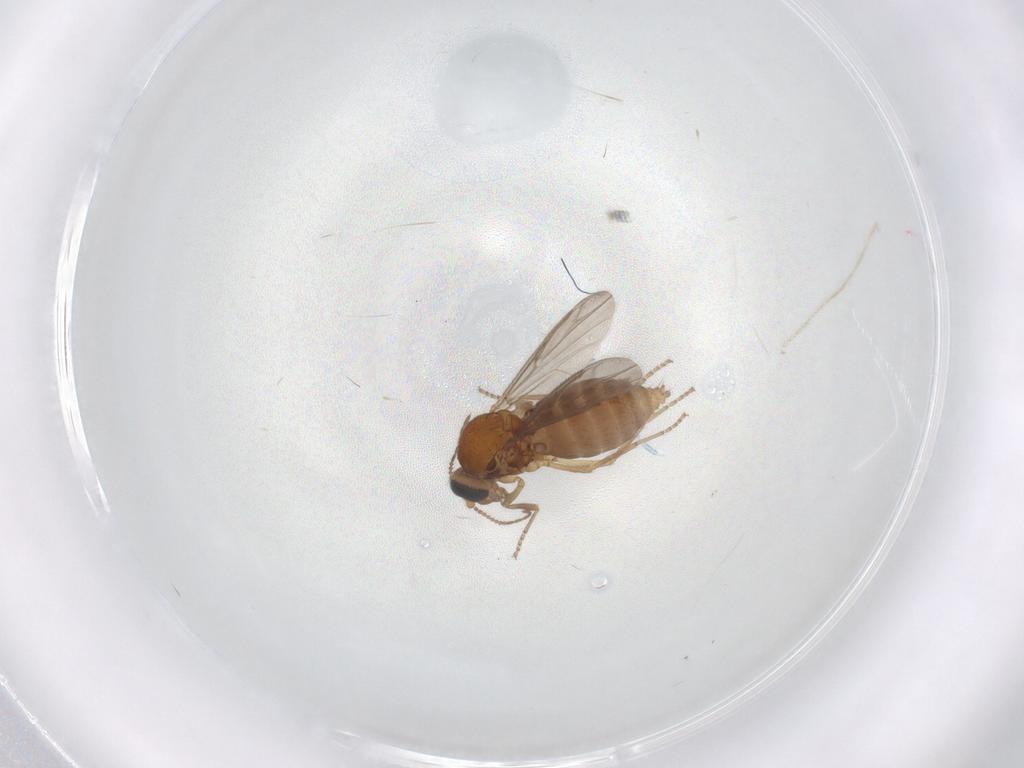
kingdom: Animalia
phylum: Arthropoda
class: Insecta
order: Diptera
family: Ceratopogonidae
